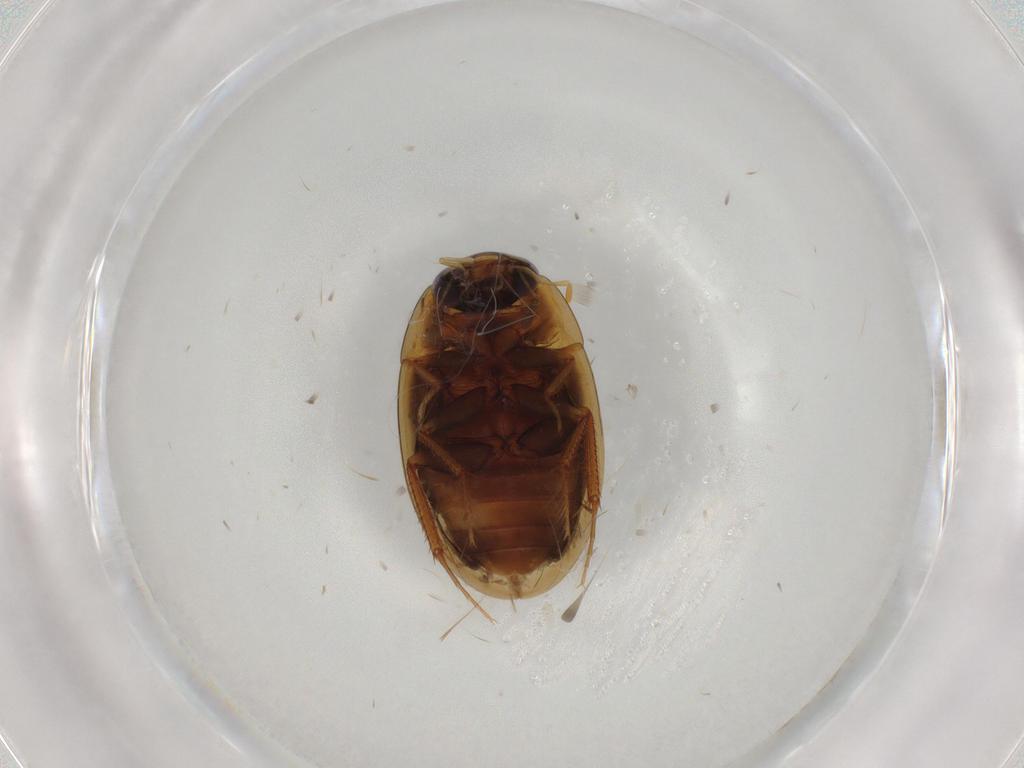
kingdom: Animalia
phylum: Arthropoda
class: Insecta
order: Coleoptera
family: Hydrophilidae
